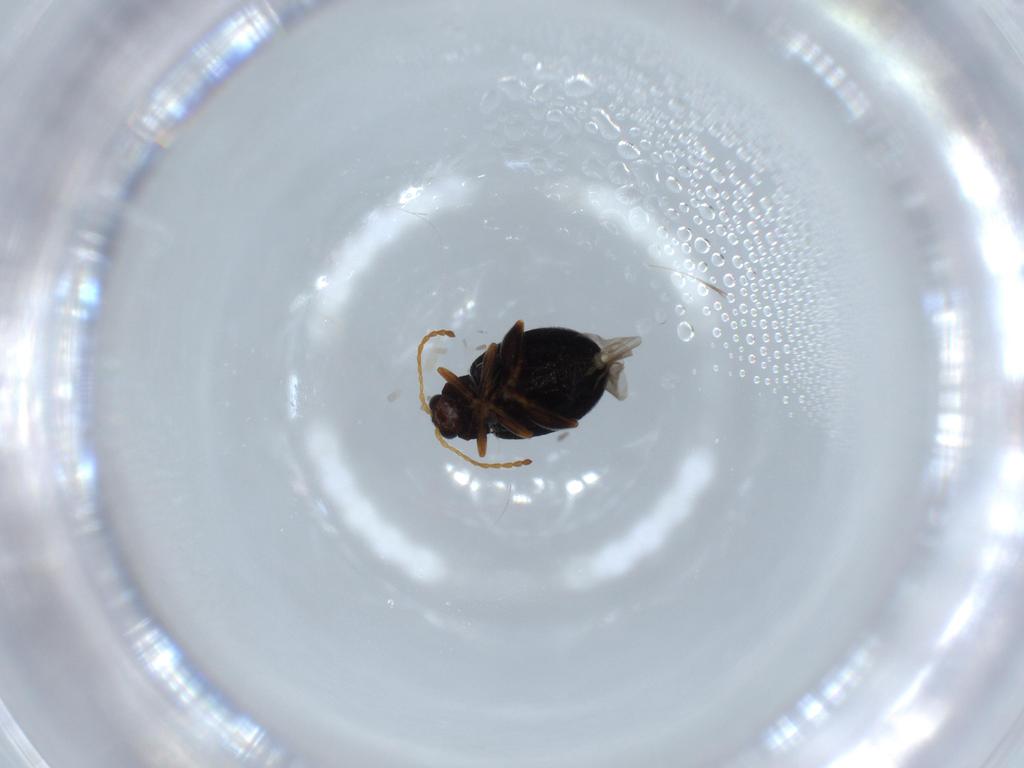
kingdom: Animalia
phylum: Arthropoda
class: Insecta
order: Coleoptera
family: Chrysomelidae
